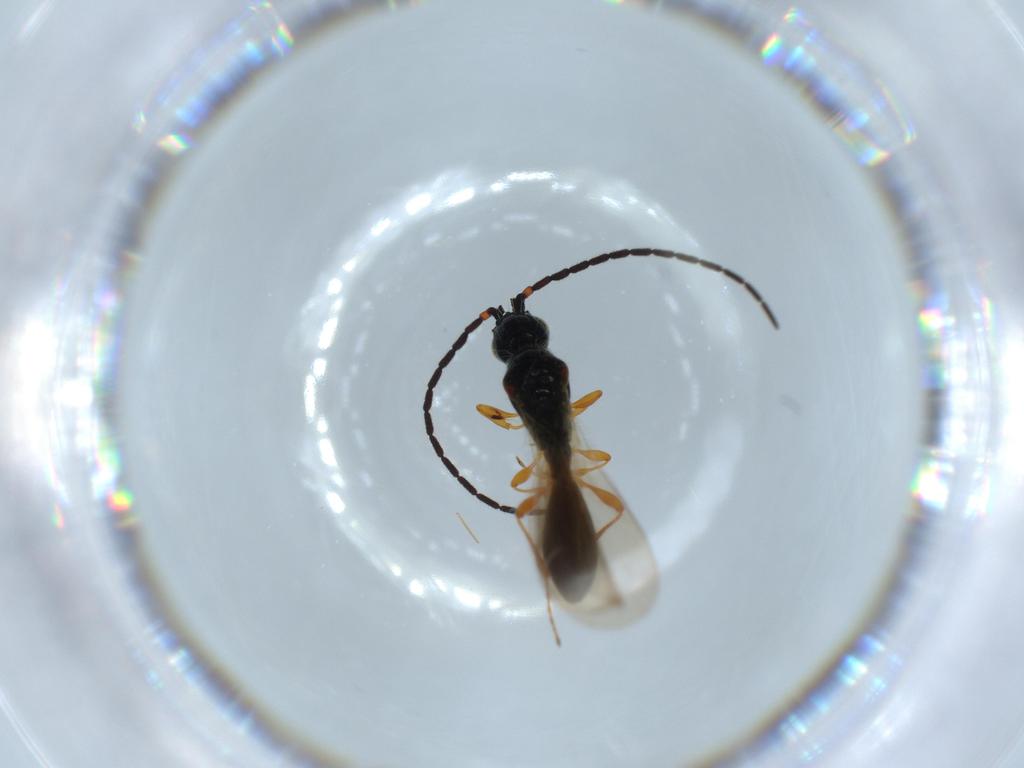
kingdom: Animalia
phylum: Arthropoda
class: Insecta
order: Hymenoptera
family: Diapriidae
